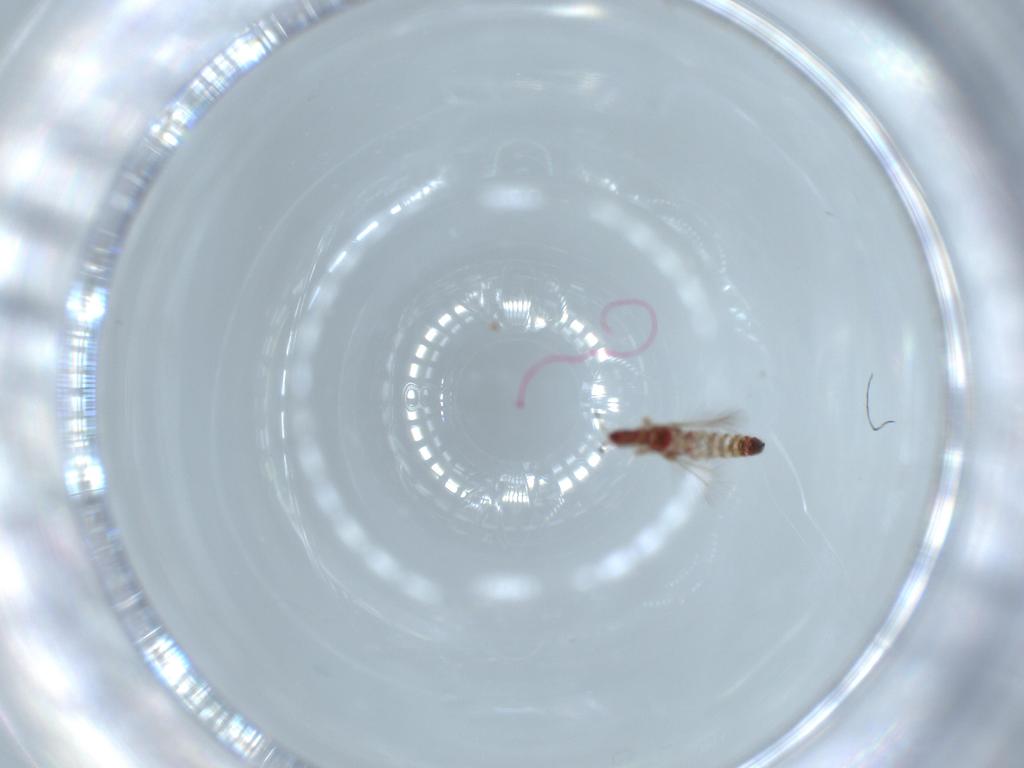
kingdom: Animalia
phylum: Arthropoda
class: Insecta
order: Thysanoptera
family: Phlaeothripidae
